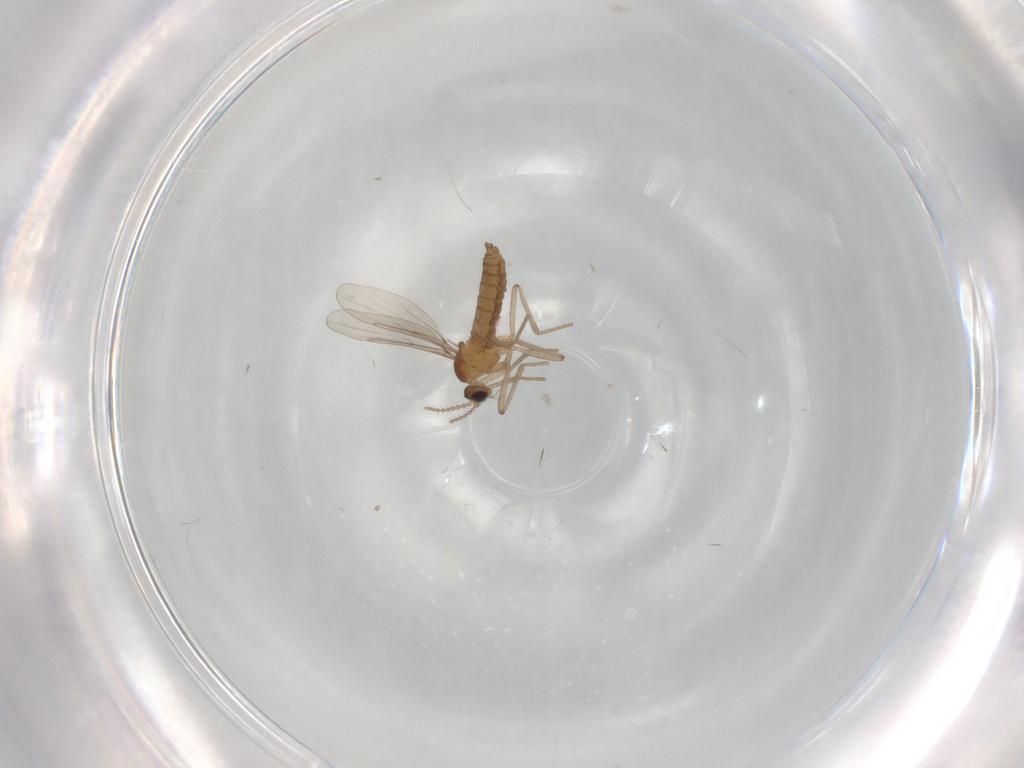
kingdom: Animalia
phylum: Arthropoda
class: Insecta
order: Diptera
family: Cecidomyiidae
